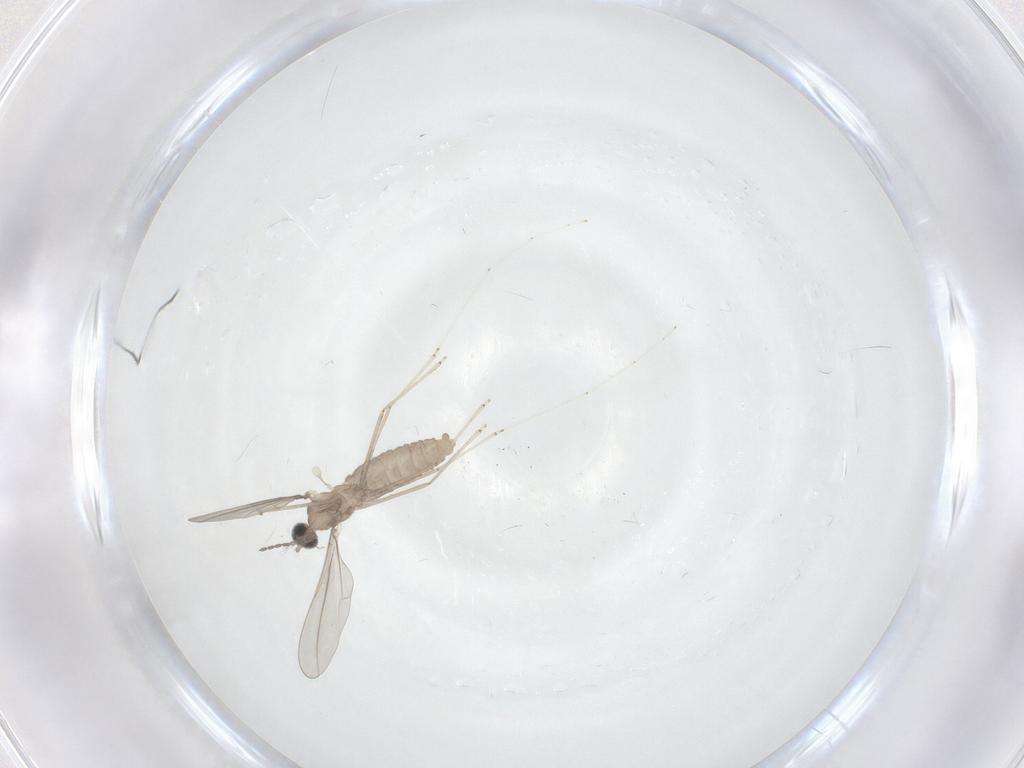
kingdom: Animalia
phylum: Arthropoda
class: Insecta
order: Diptera
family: Cecidomyiidae
